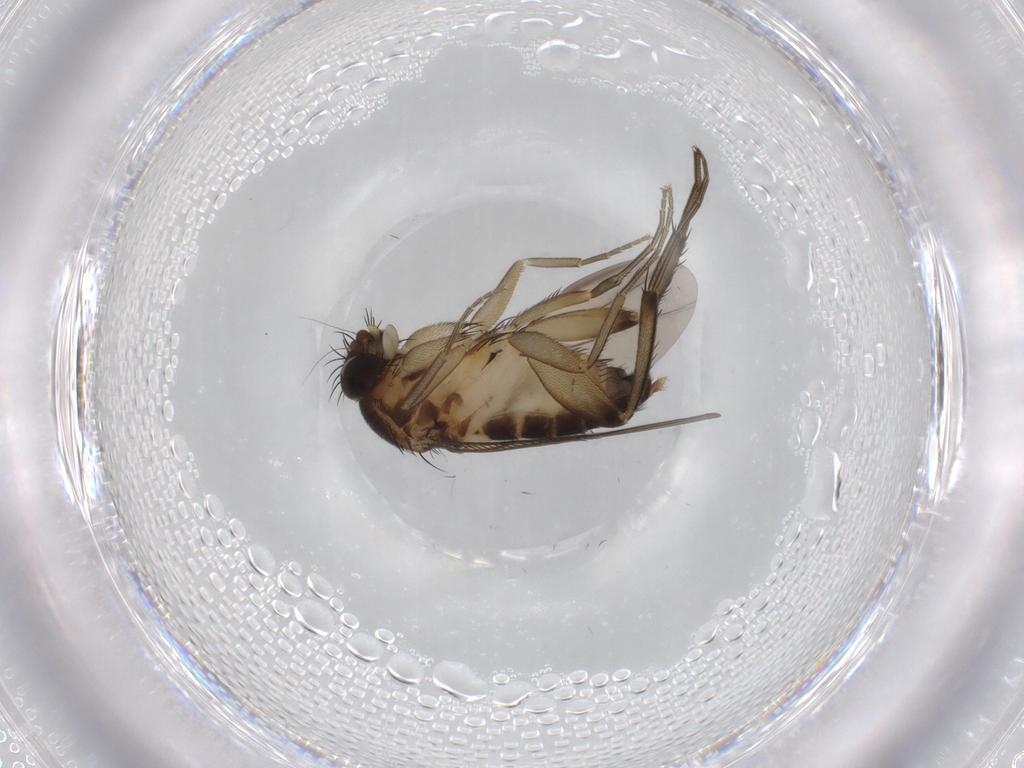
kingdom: Animalia
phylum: Arthropoda
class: Insecta
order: Diptera
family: Phoridae
